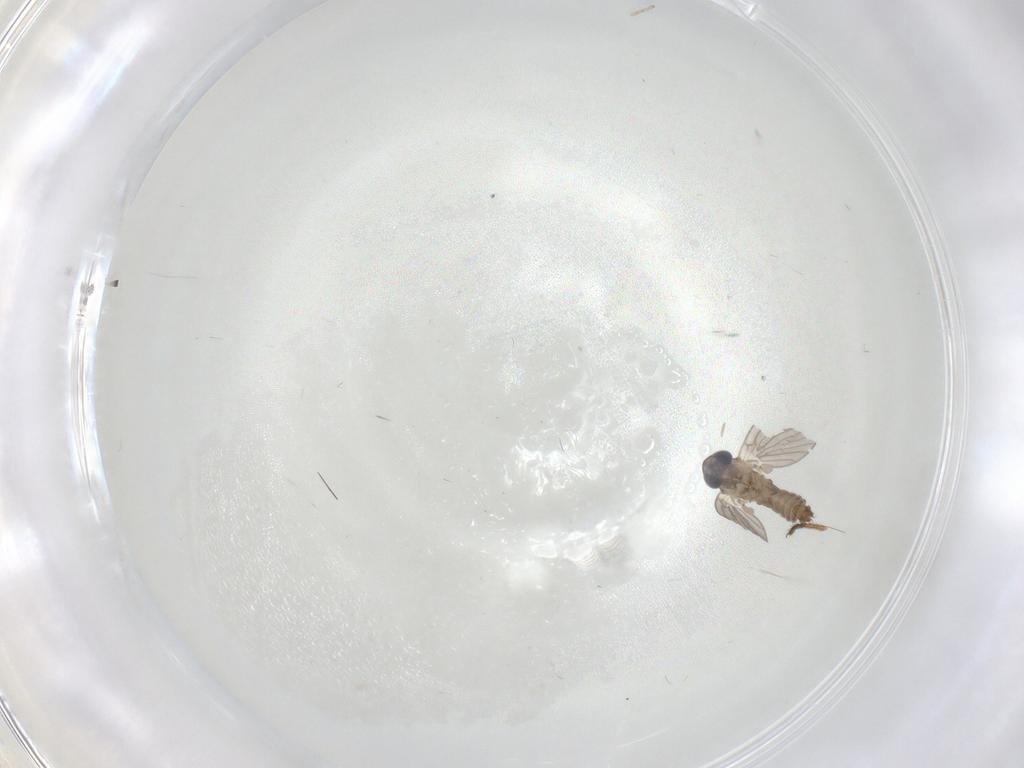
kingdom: Animalia
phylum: Arthropoda
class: Insecta
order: Diptera
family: Psychodidae
